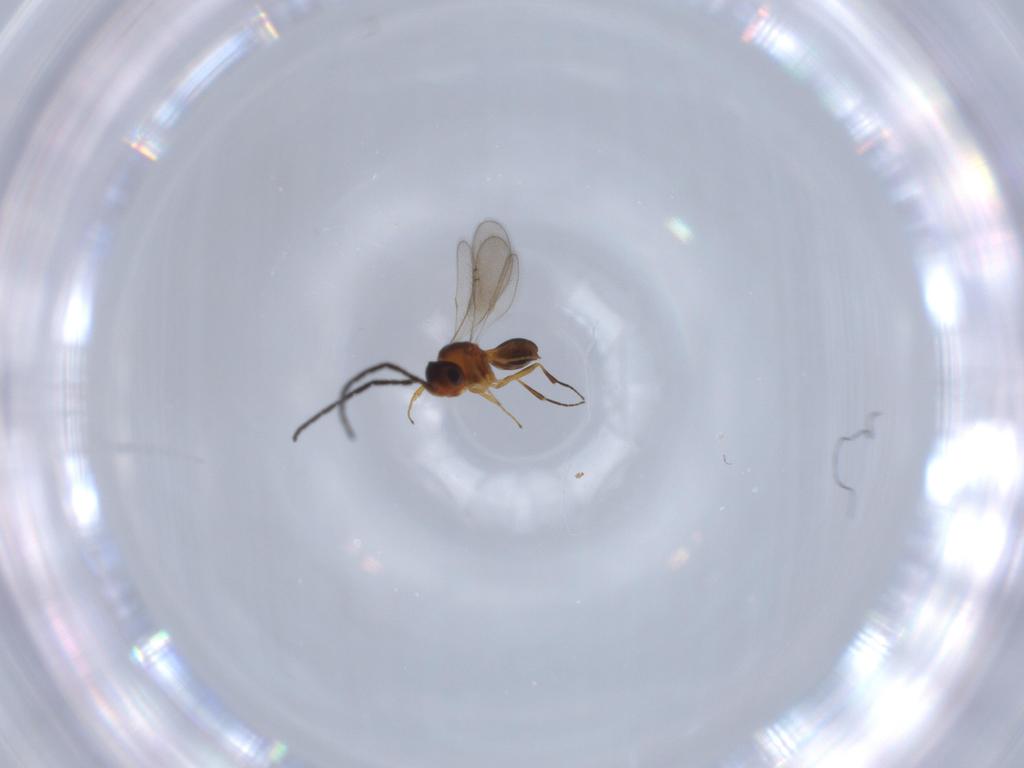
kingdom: Animalia
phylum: Arthropoda
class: Insecta
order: Hymenoptera
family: Scelionidae
